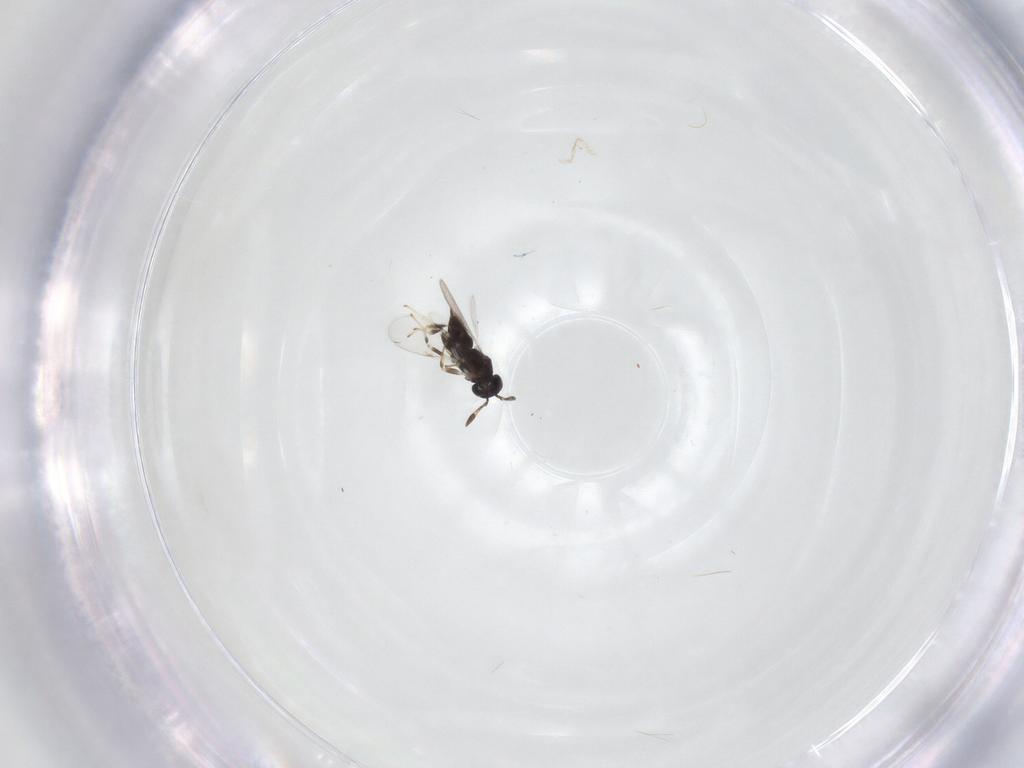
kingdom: Animalia
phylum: Arthropoda
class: Insecta
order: Hymenoptera
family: Encyrtidae
